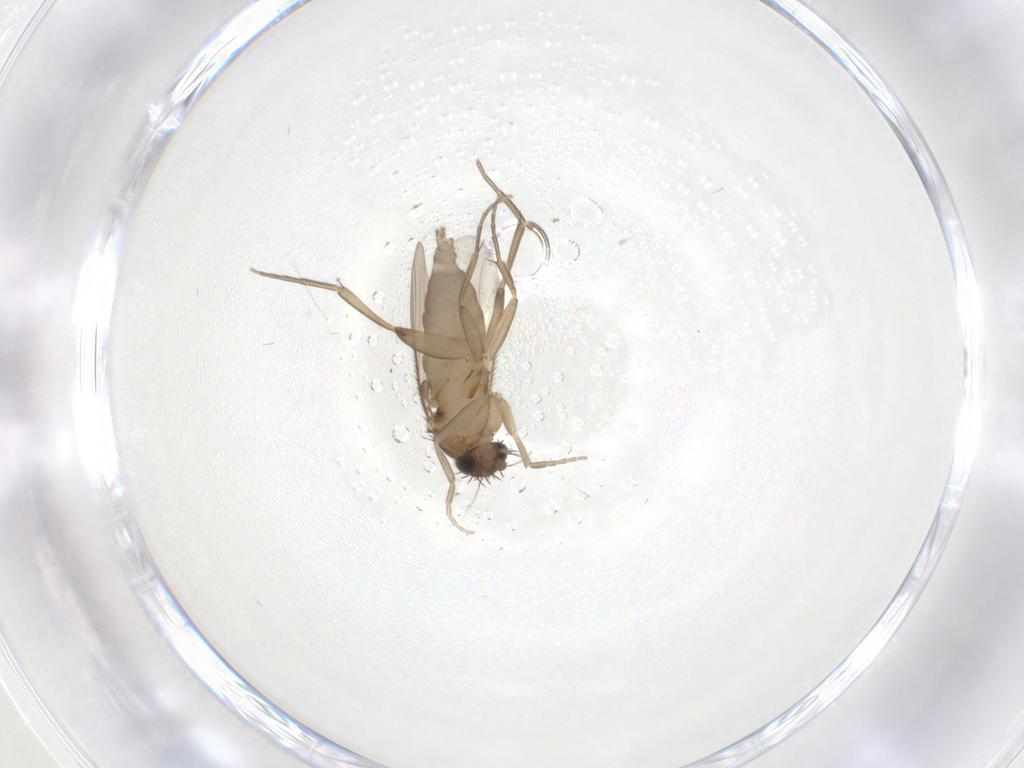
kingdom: Animalia
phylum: Arthropoda
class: Insecta
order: Diptera
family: Phoridae
